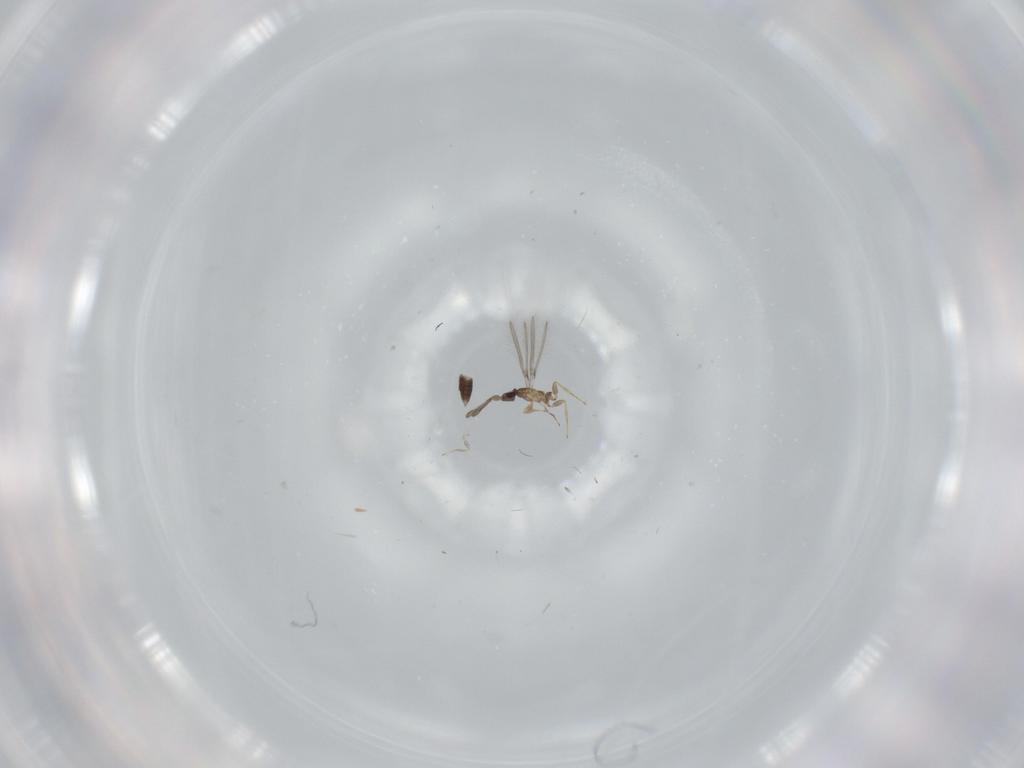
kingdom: Animalia
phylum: Arthropoda
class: Insecta
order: Hymenoptera
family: Mymaridae
